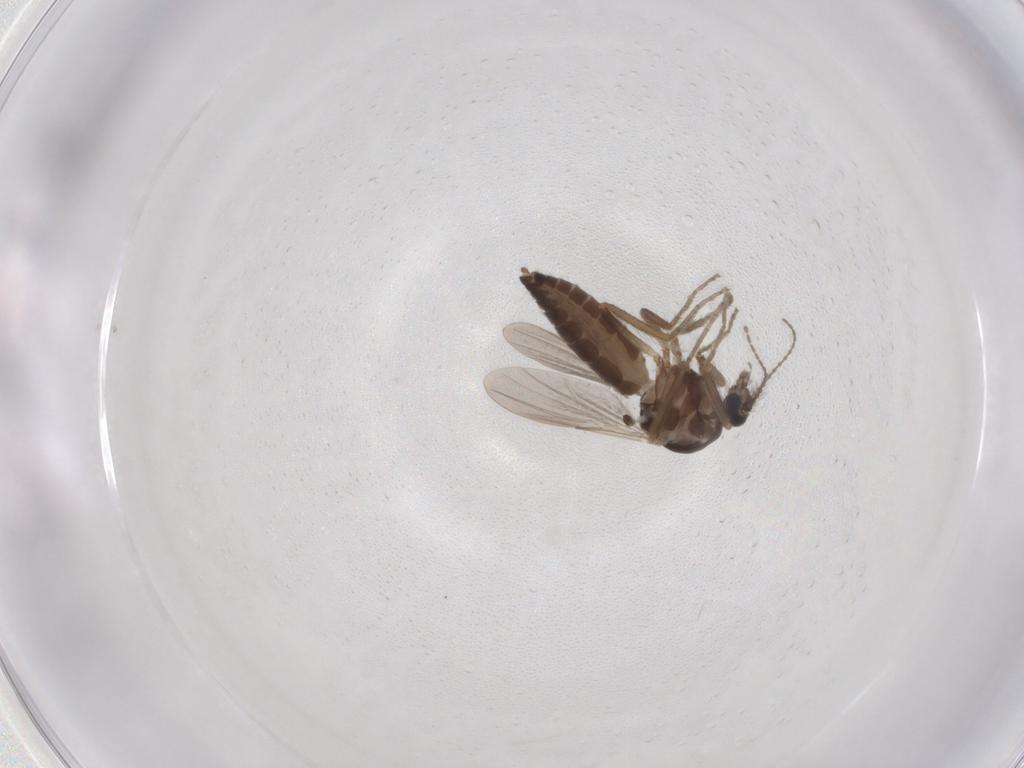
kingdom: Animalia
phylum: Arthropoda
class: Insecta
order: Diptera
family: Ceratopogonidae
